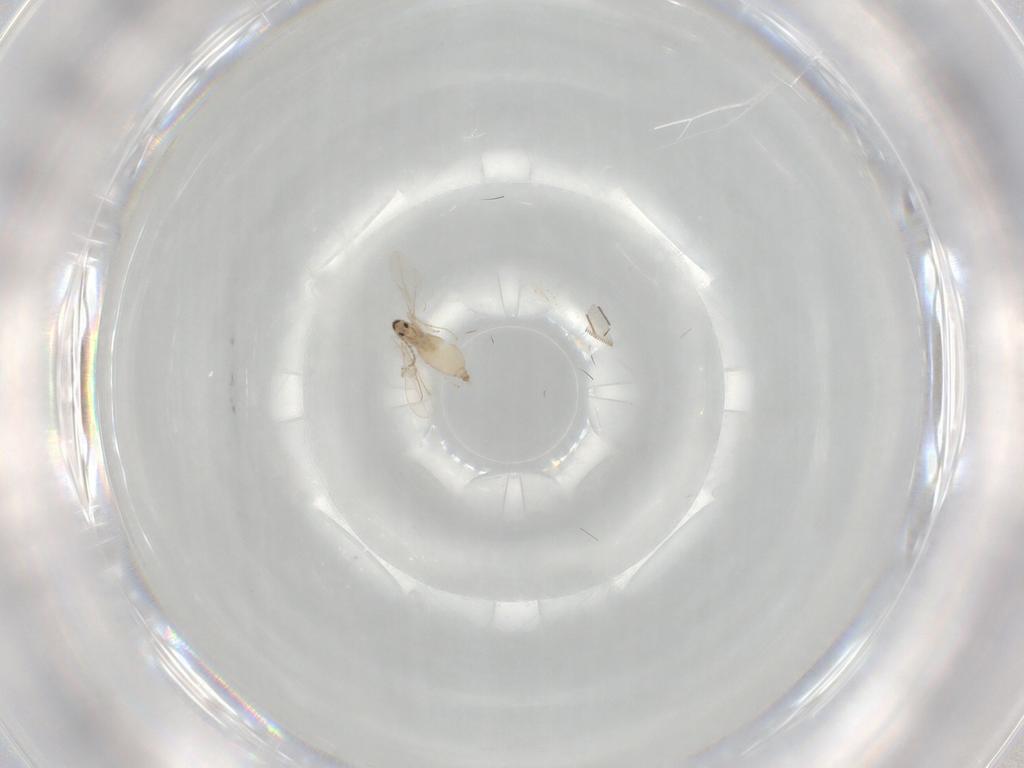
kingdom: Animalia
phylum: Arthropoda
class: Insecta
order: Diptera
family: Cecidomyiidae
